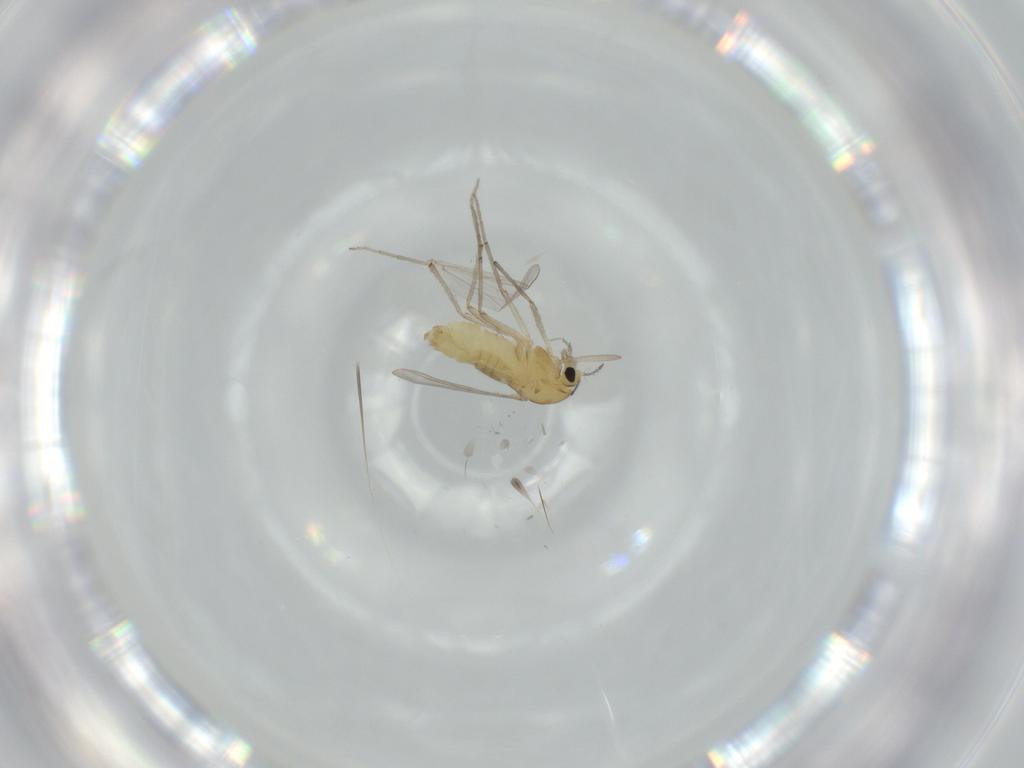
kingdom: Animalia
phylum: Arthropoda
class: Insecta
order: Diptera
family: Chironomidae
